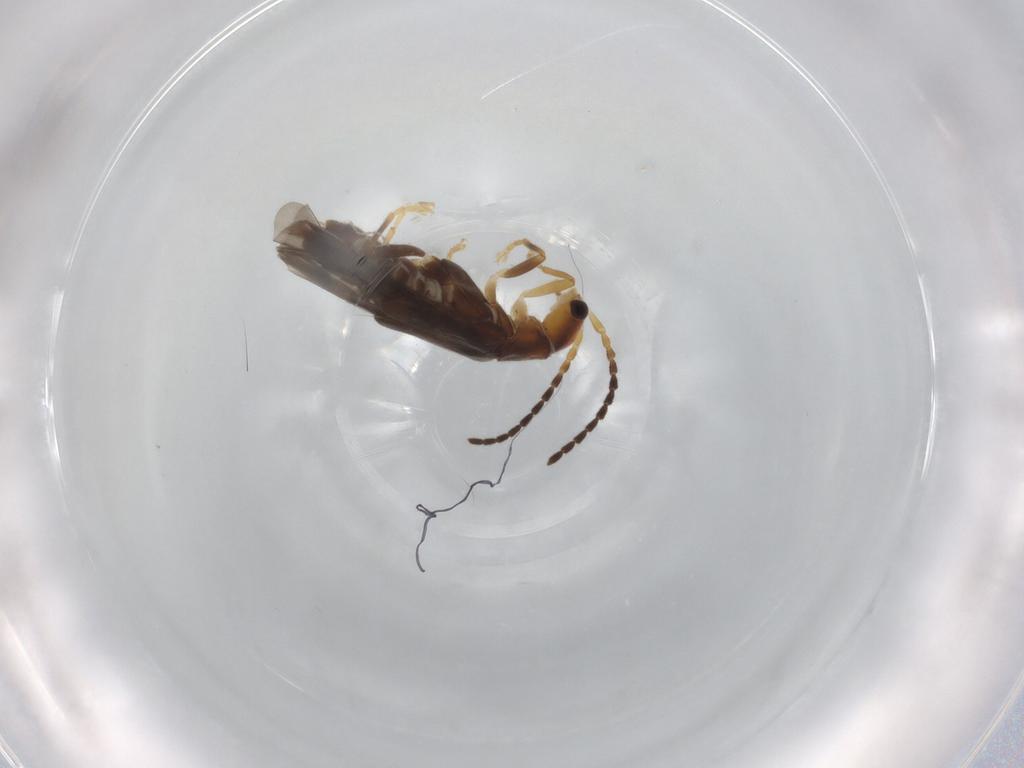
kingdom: Animalia
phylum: Arthropoda
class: Insecta
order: Coleoptera
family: Cantharidae
